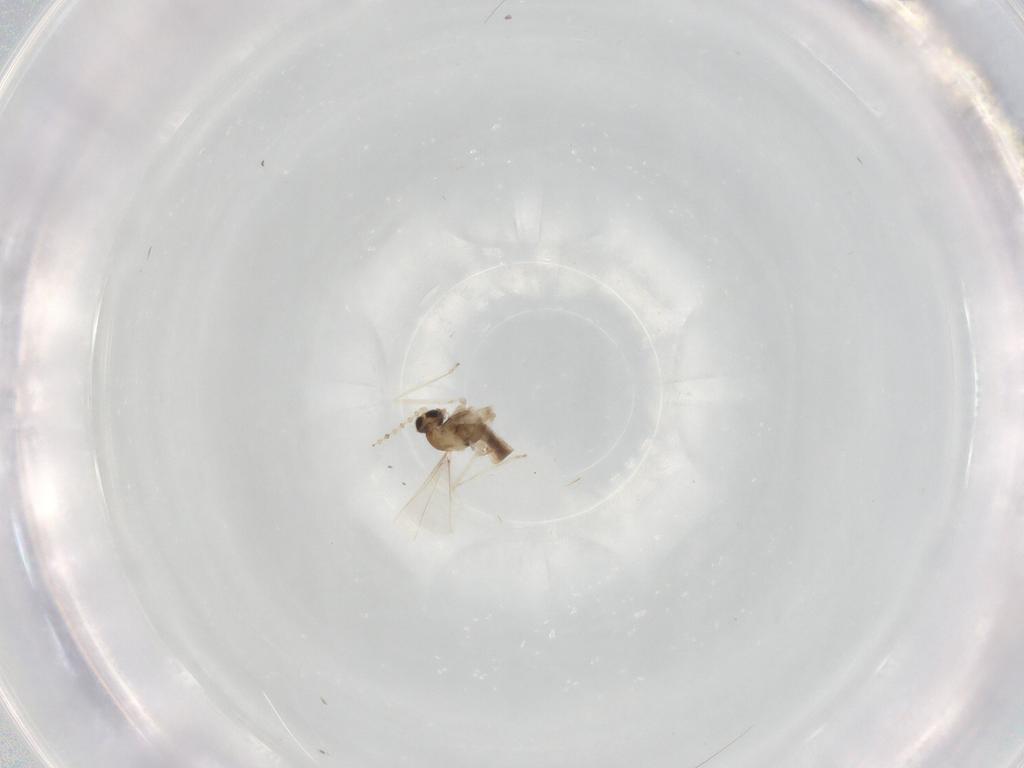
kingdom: Animalia
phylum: Arthropoda
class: Insecta
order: Diptera
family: Sciaridae
